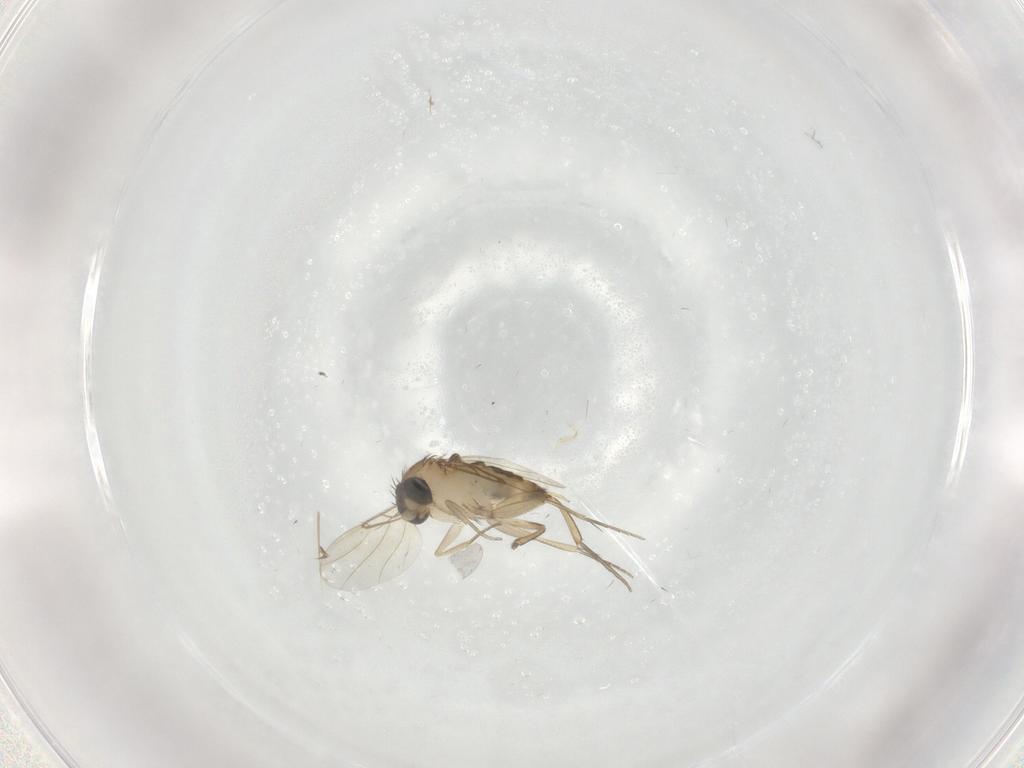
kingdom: Animalia
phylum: Arthropoda
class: Insecta
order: Diptera
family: Phoridae
